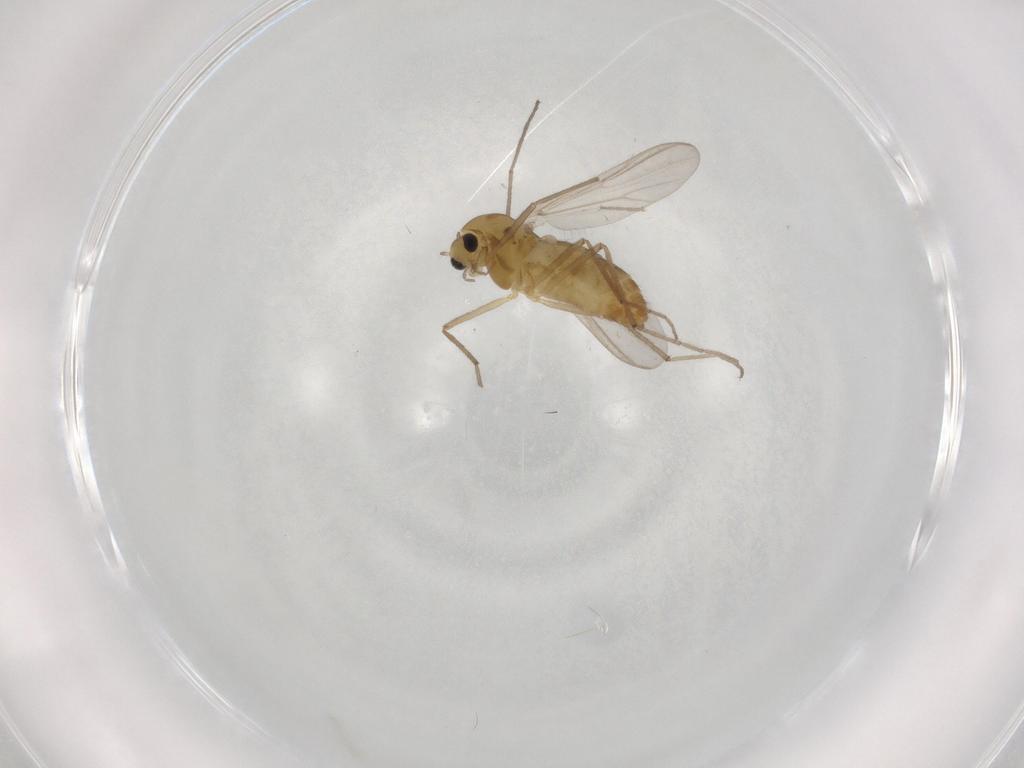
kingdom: Animalia
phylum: Arthropoda
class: Insecta
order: Diptera
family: Chironomidae
